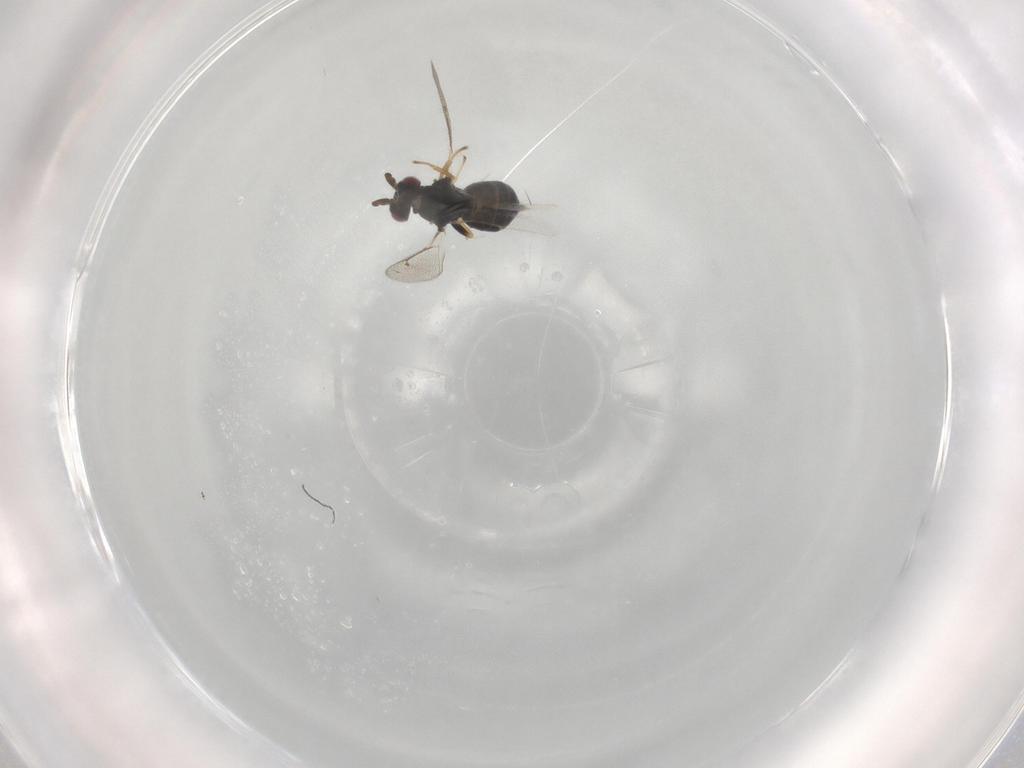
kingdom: Animalia
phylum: Arthropoda
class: Insecta
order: Hymenoptera
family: Eulophidae
